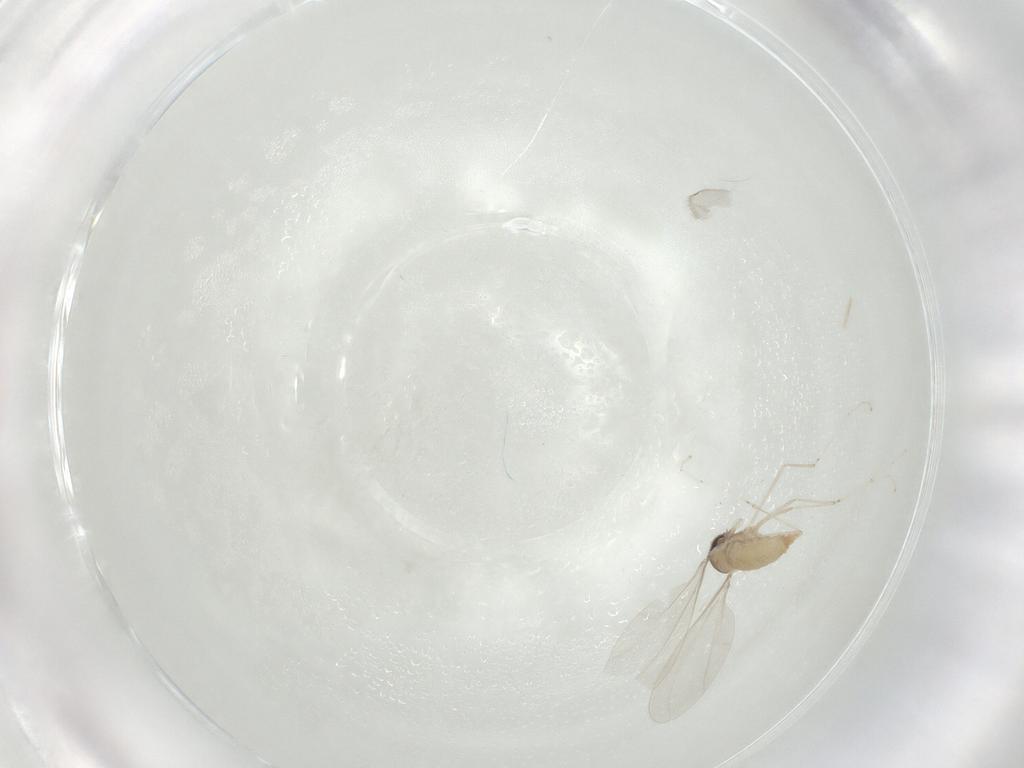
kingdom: Animalia
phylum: Arthropoda
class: Insecta
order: Diptera
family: Cecidomyiidae
